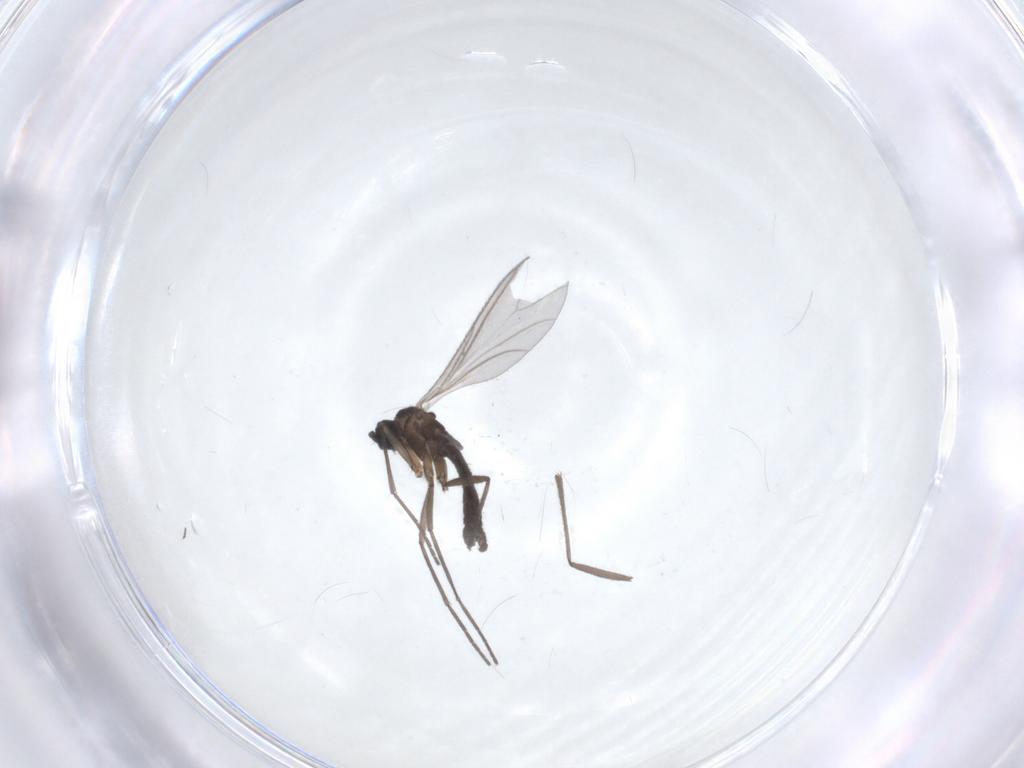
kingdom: Animalia
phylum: Arthropoda
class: Insecta
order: Diptera
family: Sciaridae
